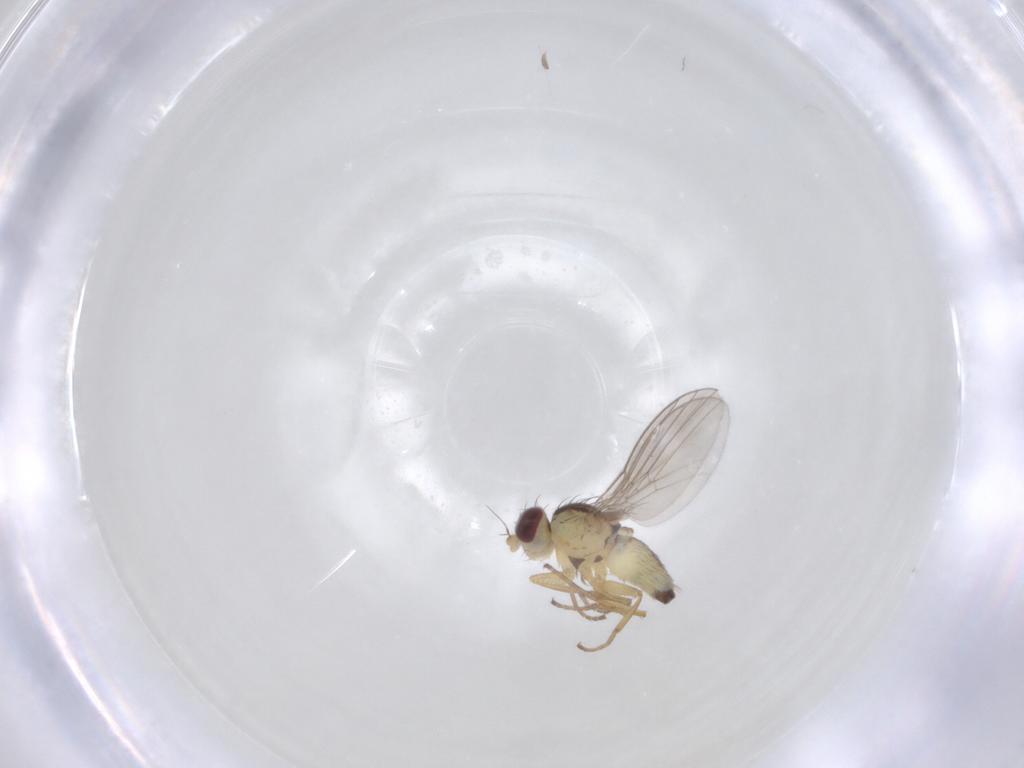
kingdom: Animalia
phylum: Arthropoda
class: Insecta
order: Diptera
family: Agromyzidae
